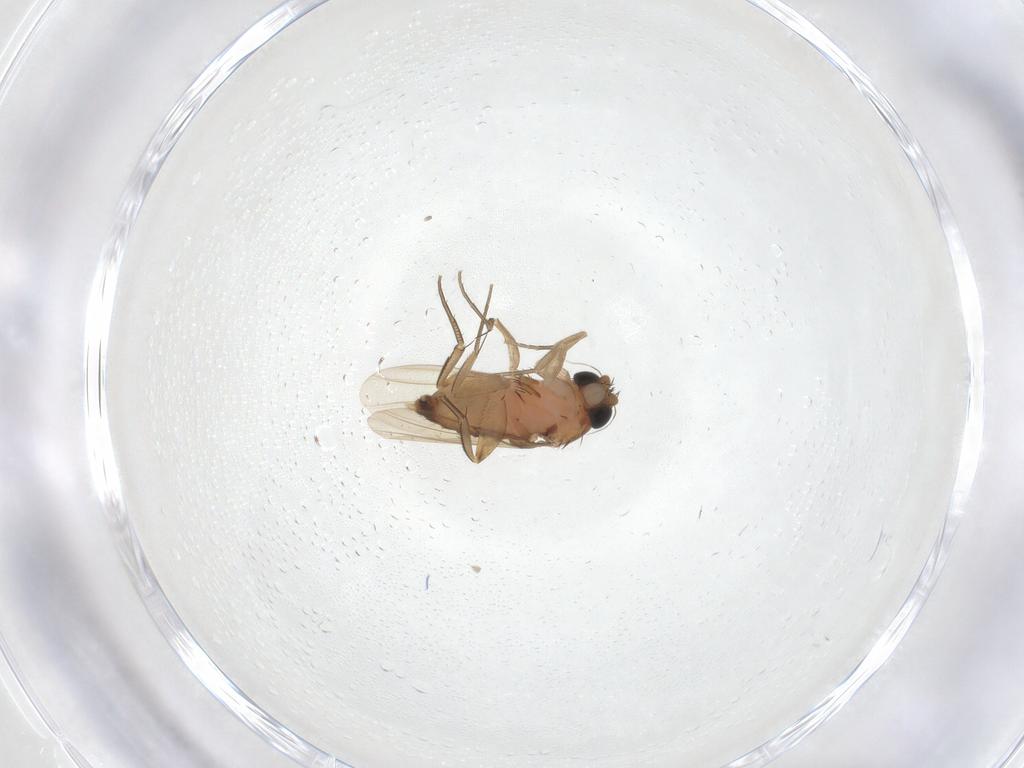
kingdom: Animalia
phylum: Arthropoda
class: Insecta
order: Diptera
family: Phoridae
